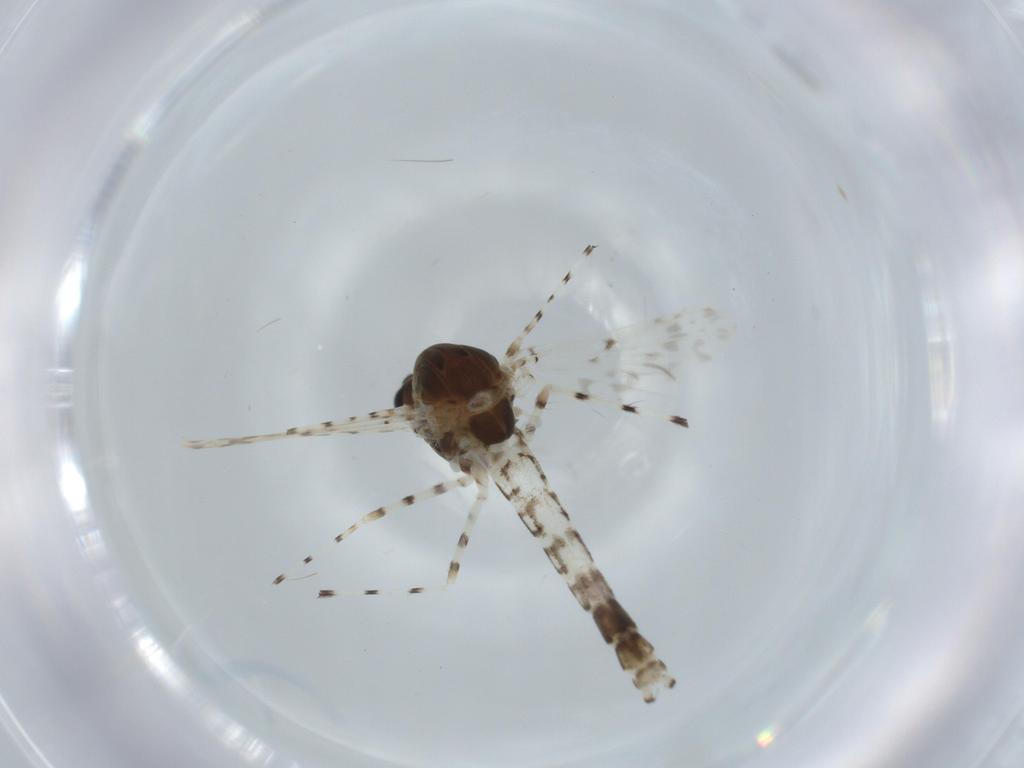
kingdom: Animalia
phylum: Arthropoda
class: Insecta
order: Diptera
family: Chironomidae
